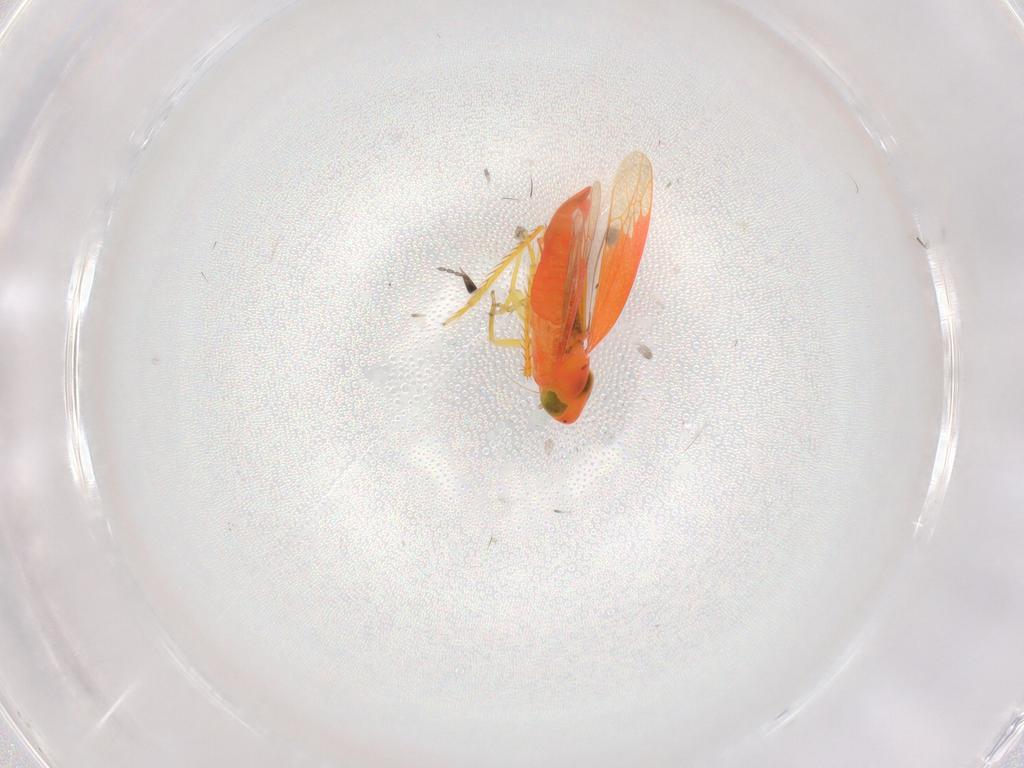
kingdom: Animalia
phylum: Arthropoda
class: Insecta
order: Hemiptera
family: Cicadellidae
